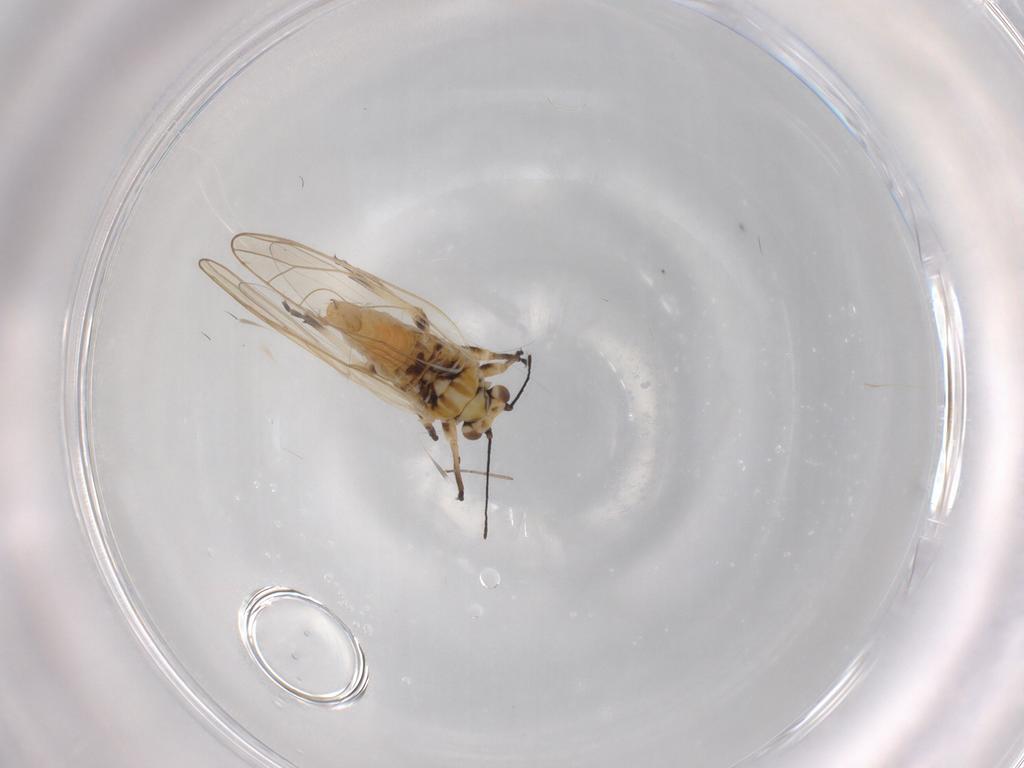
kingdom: Animalia
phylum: Arthropoda
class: Insecta
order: Hemiptera
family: Triozidae
